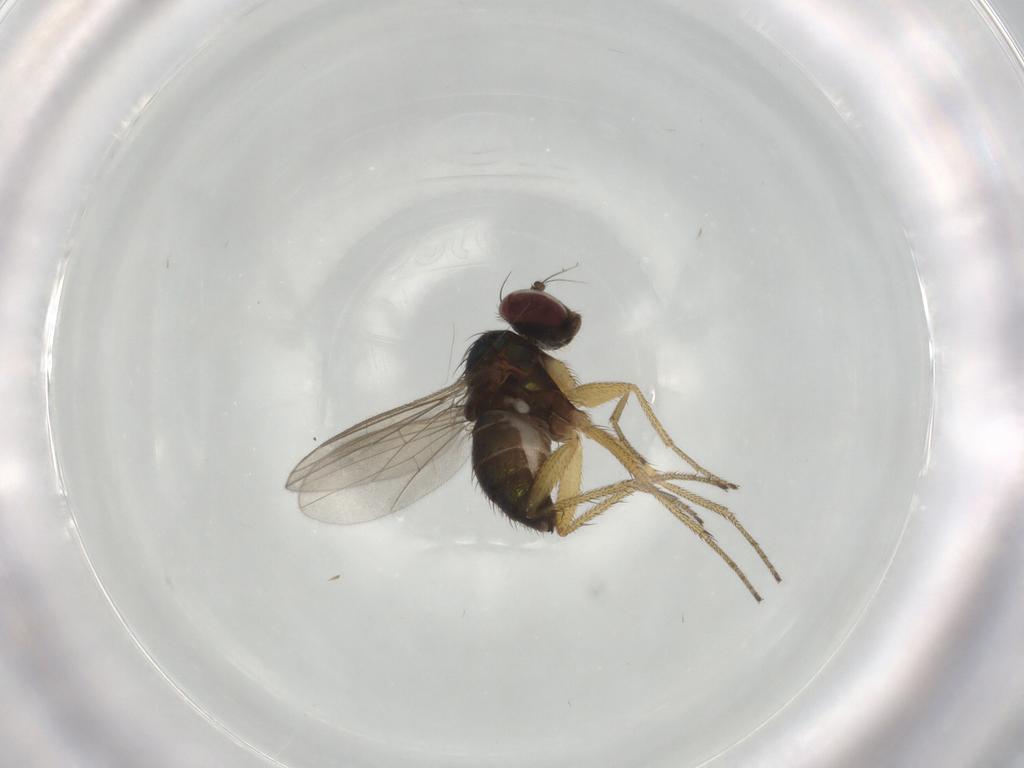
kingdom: Animalia
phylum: Arthropoda
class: Insecta
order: Diptera
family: Dolichopodidae
